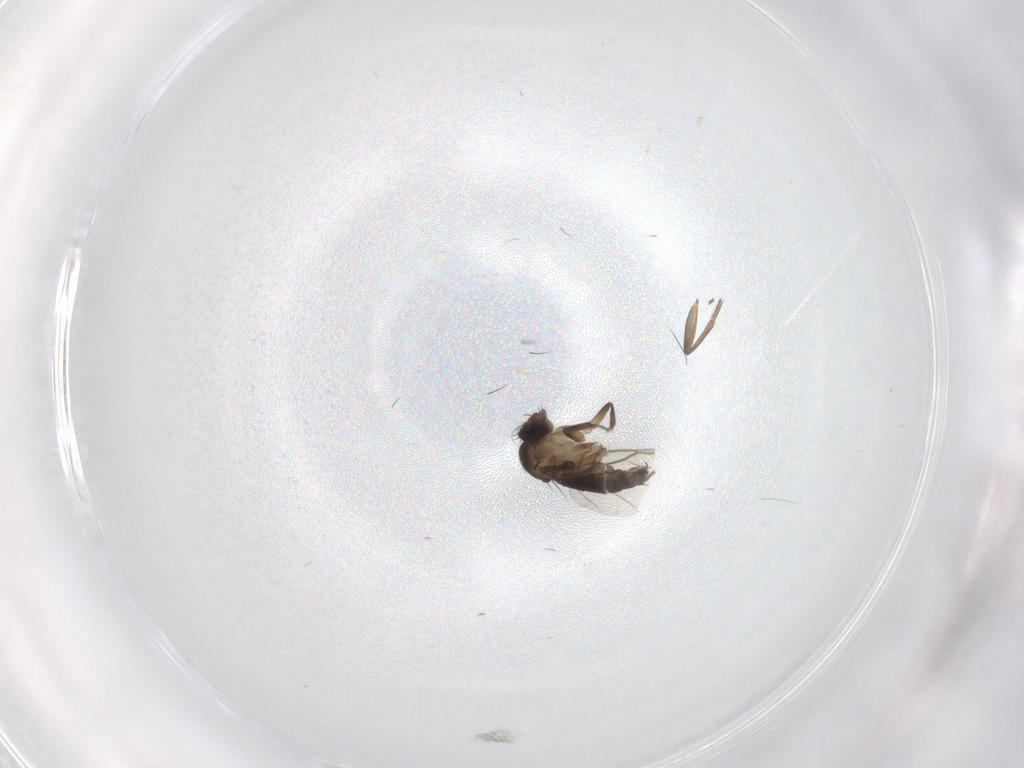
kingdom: Animalia
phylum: Arthropoda
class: Insecta
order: Diptera
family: Phoridae
